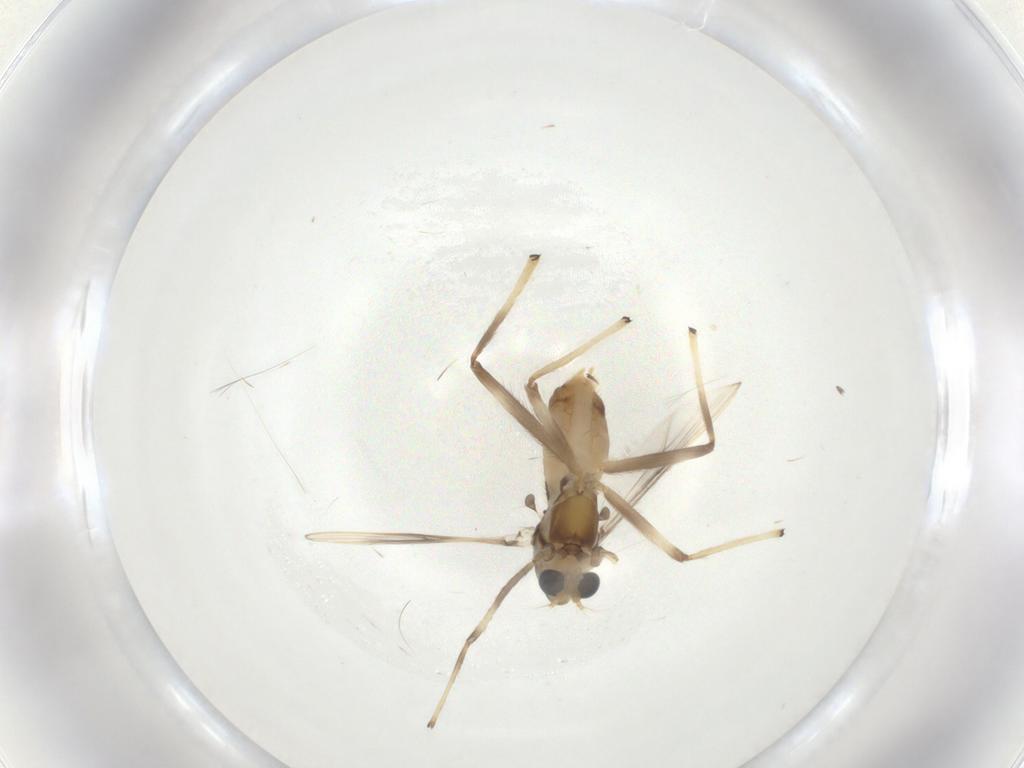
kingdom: Animalia
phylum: Arthropoda
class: Insecta
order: Diptera
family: Chironomidae
